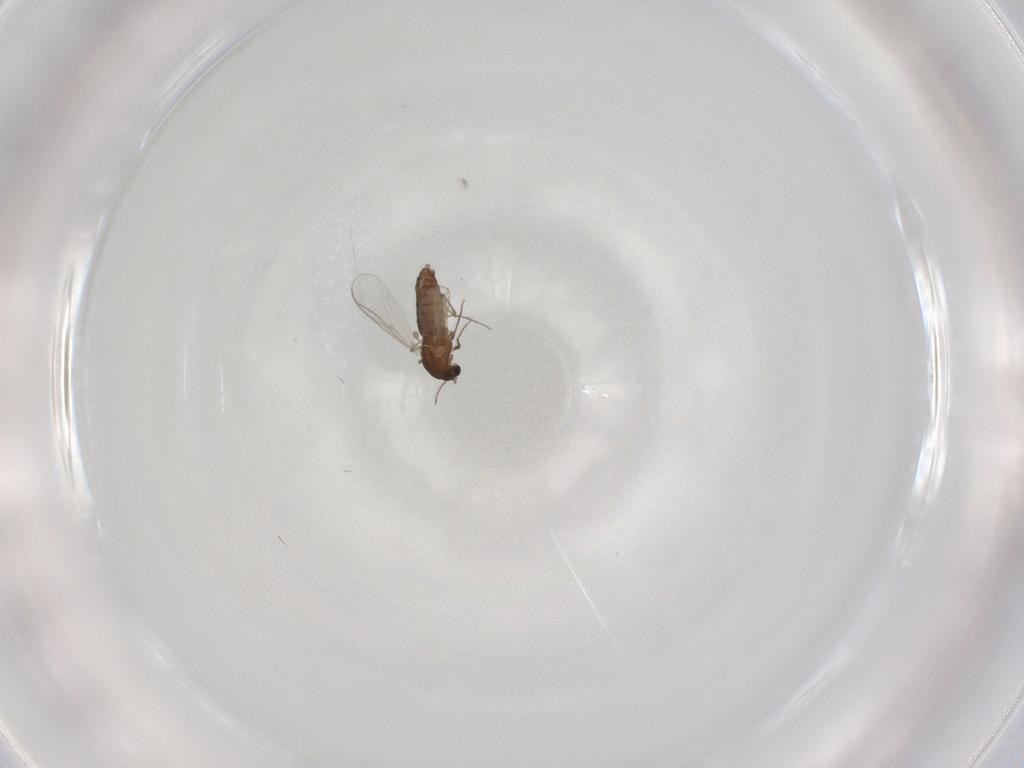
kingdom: Animalia
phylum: Arthropoda
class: Insecta
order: Diptera
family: Chironomidae
